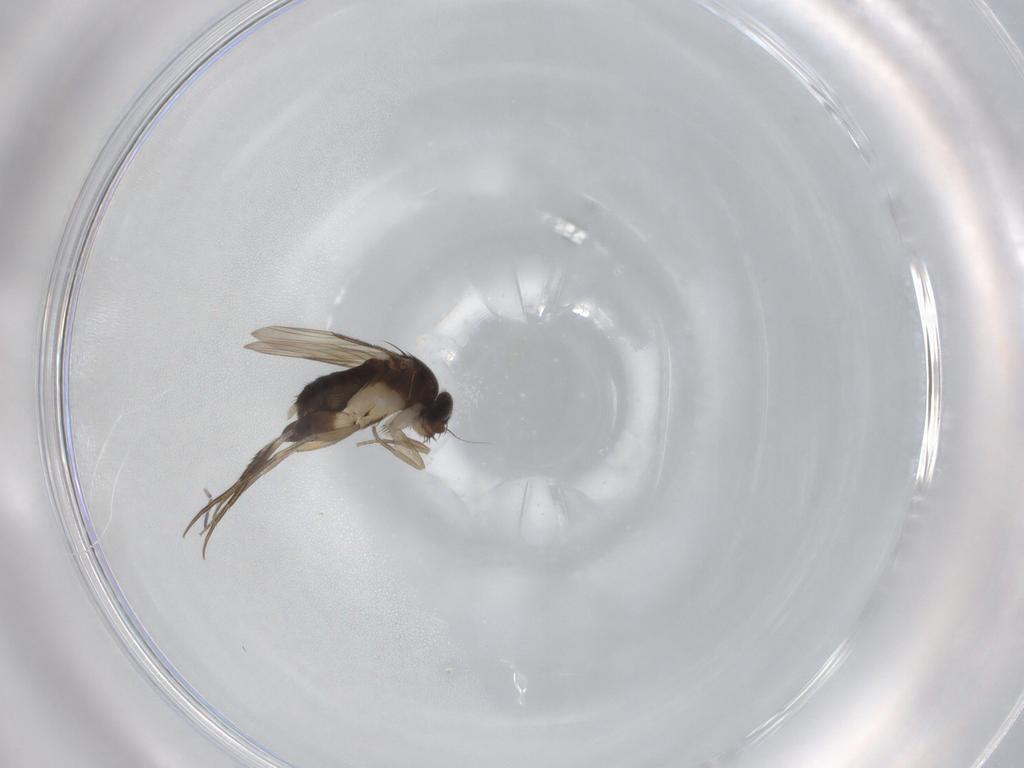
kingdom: Animalia
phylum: Arthropoda
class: Insecta
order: Diptera
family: Phoridae
